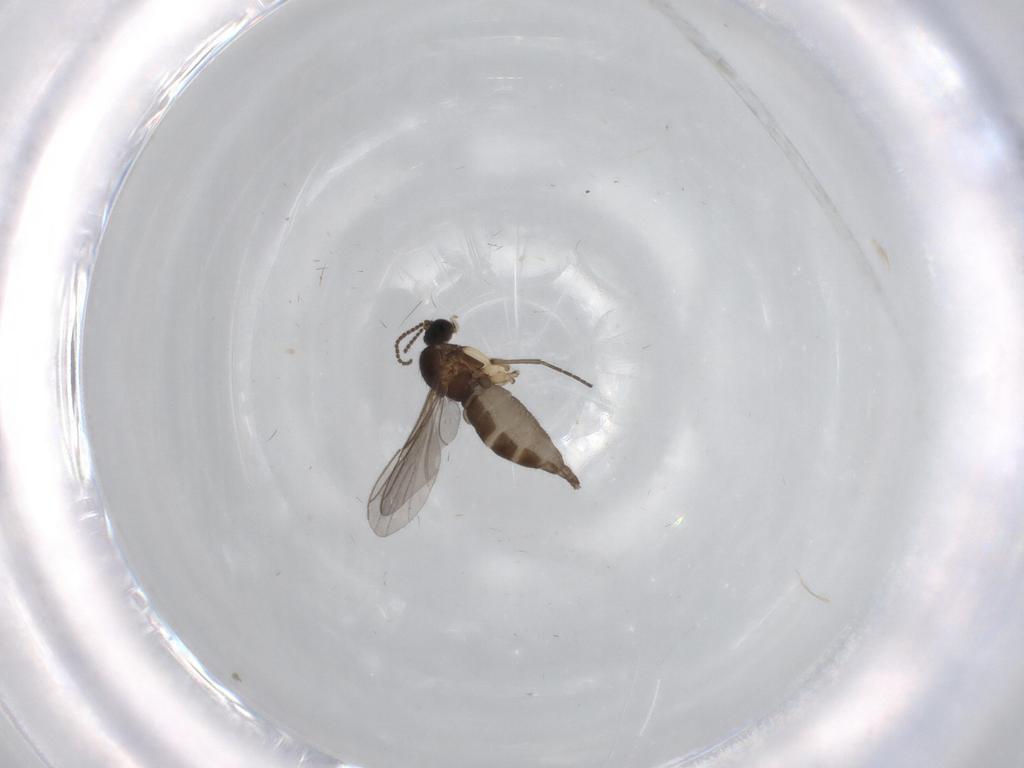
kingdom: Animalia
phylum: Arthropoda
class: Insecta
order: Diptera
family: Sciaridae
